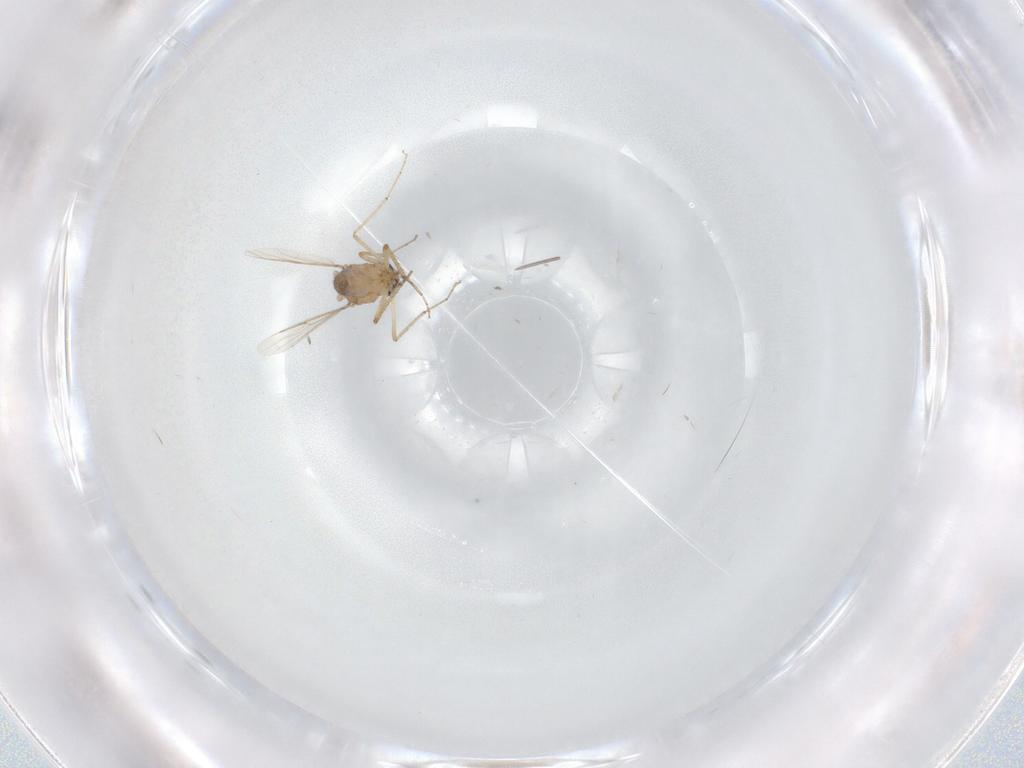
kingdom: Animalia
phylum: Arthropoda
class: Insecta
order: Diptera
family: Ceratopogonidae
